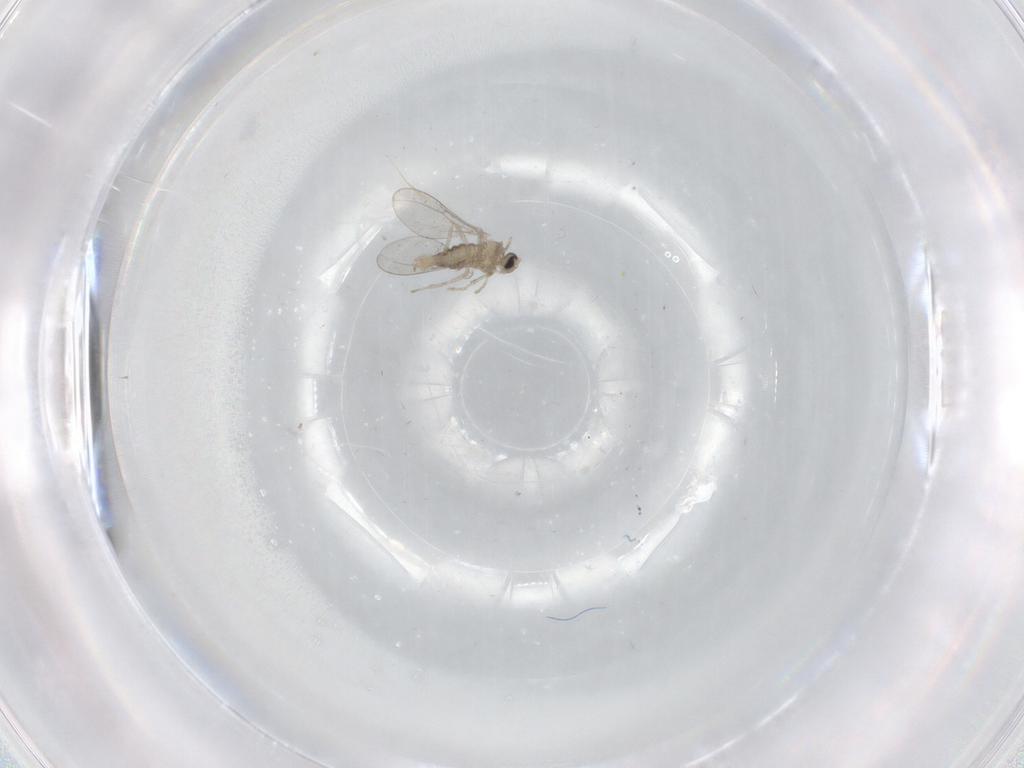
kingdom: Animalia
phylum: Arthropoda
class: Insecta
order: Diptera
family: Cecidomyiidae
